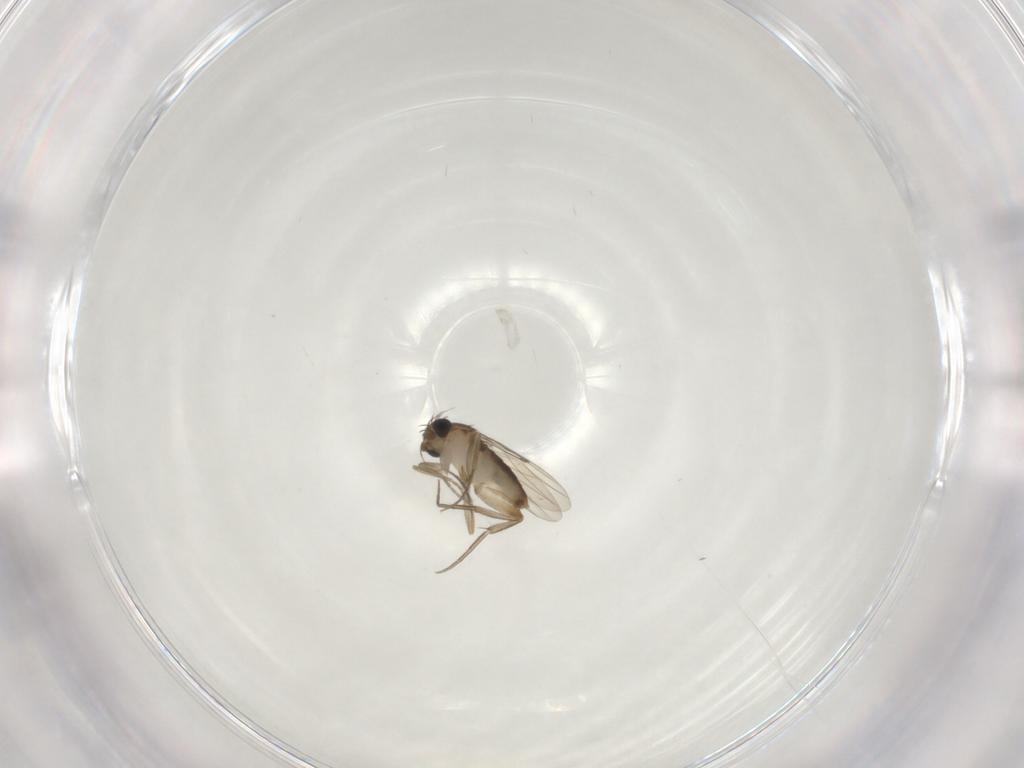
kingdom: Animalia
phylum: Arthropoda
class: Insecta
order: Diptera
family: Phoridae
